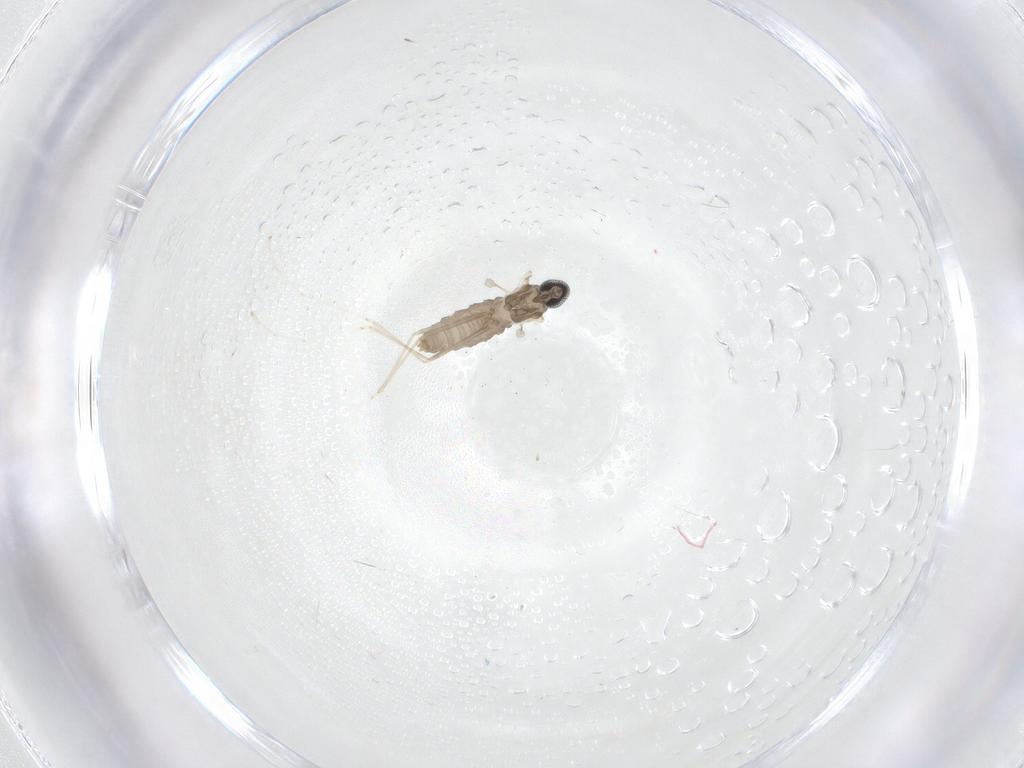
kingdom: Animalia
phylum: Arthropoda
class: Insecta
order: Diptera
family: Cecidomyiidae
